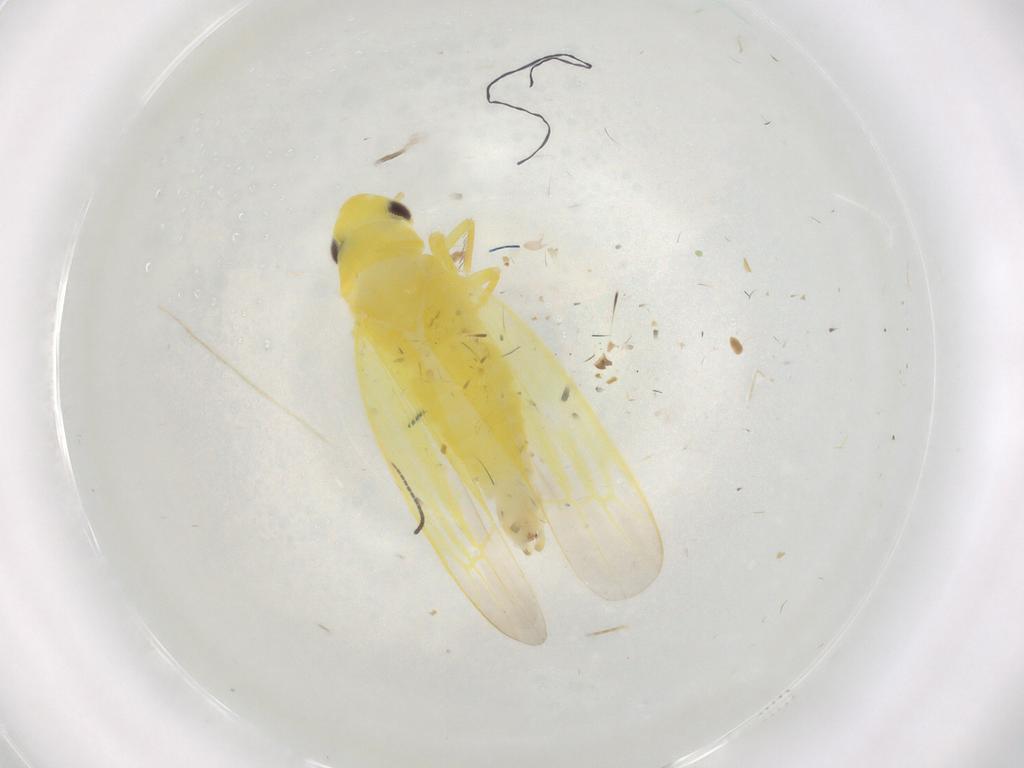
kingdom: Animalia
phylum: Arthropoda
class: Insecta
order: Hemiptera
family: Cicadellidae
